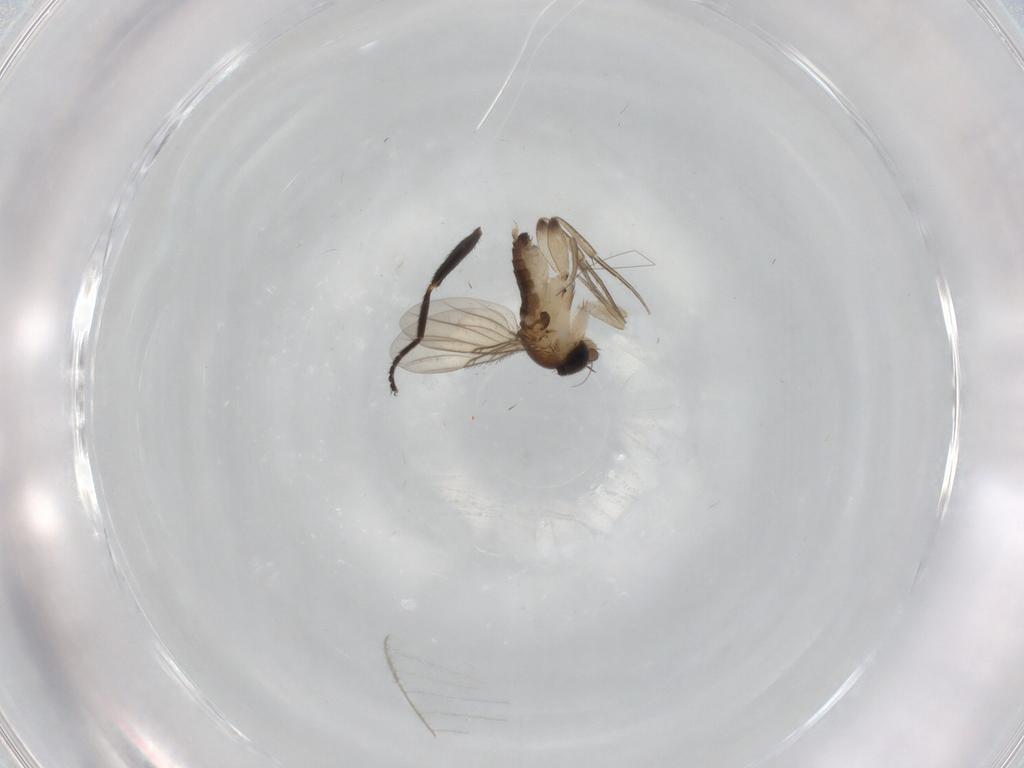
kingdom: Animalia
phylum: Arthropoda
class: Insecta
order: Diptera
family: Phoridae
